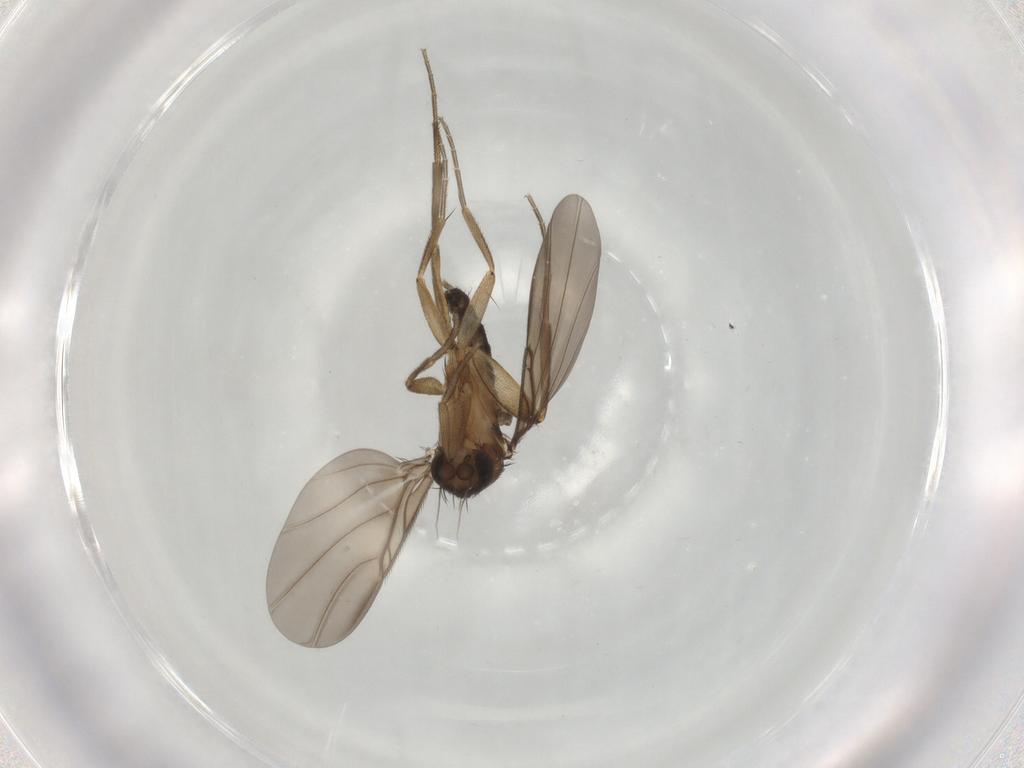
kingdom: Animalia
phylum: Arthropoda
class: Insecta
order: Diptera
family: Phoridae
